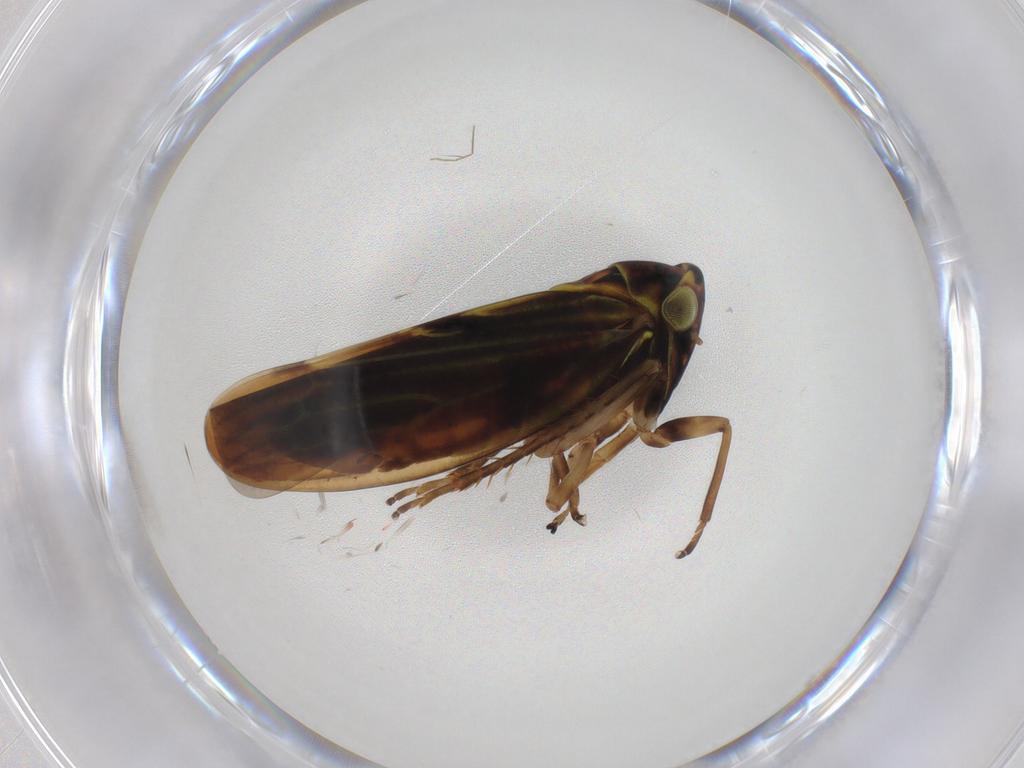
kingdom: Animalia
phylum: Arthropoda
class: Insecta
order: Hemiptera
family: Cicadellidae
